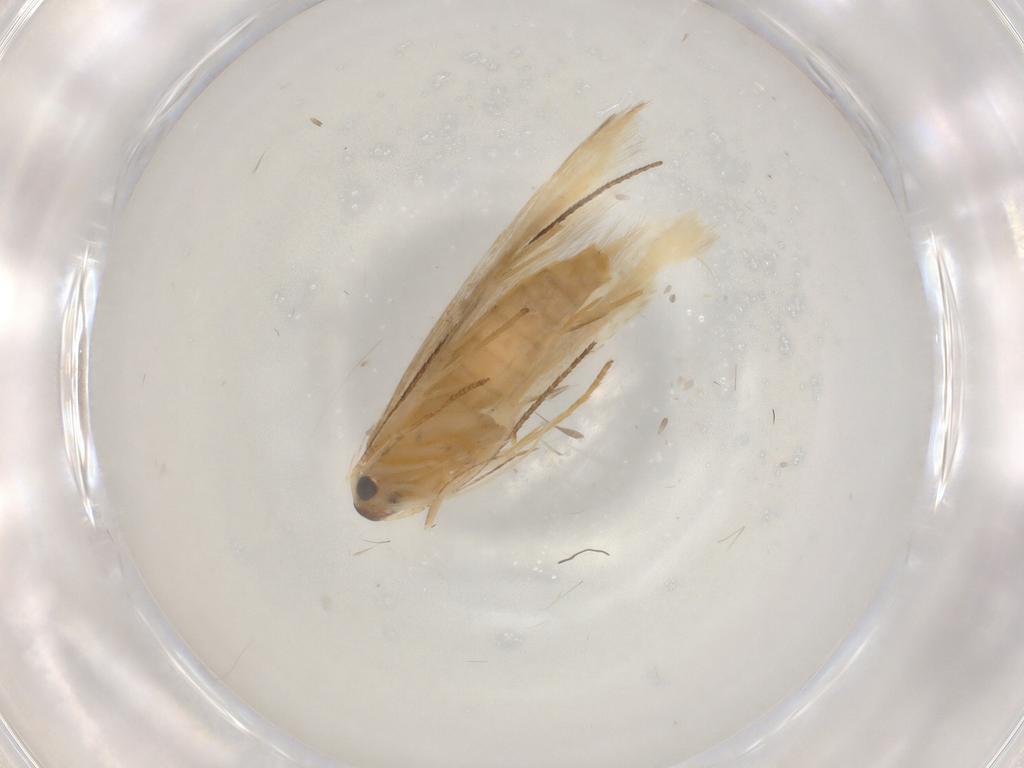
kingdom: Animalia
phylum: Arthropoda
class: Insecta
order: Lepidoptera
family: Lecithoceridae
